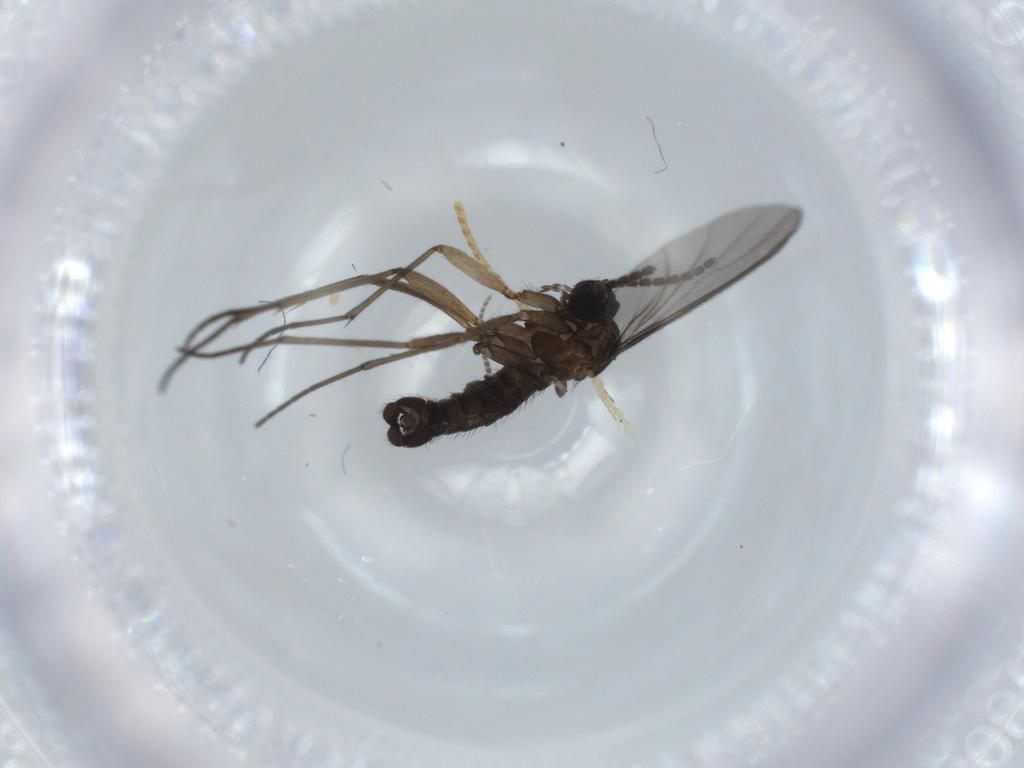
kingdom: Animalia
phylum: Arthropoda
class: Insecta
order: Diptera
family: Sciaridae
